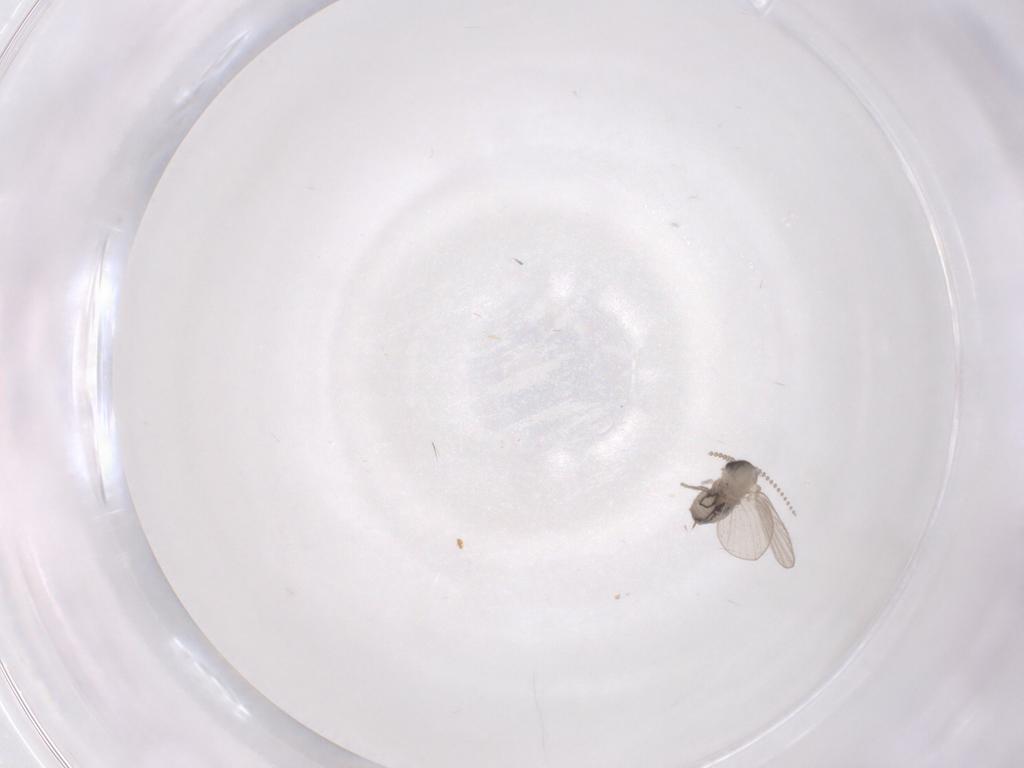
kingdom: Animalia
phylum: Arthropoda
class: Insecta
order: Diptera
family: Psychodidae
